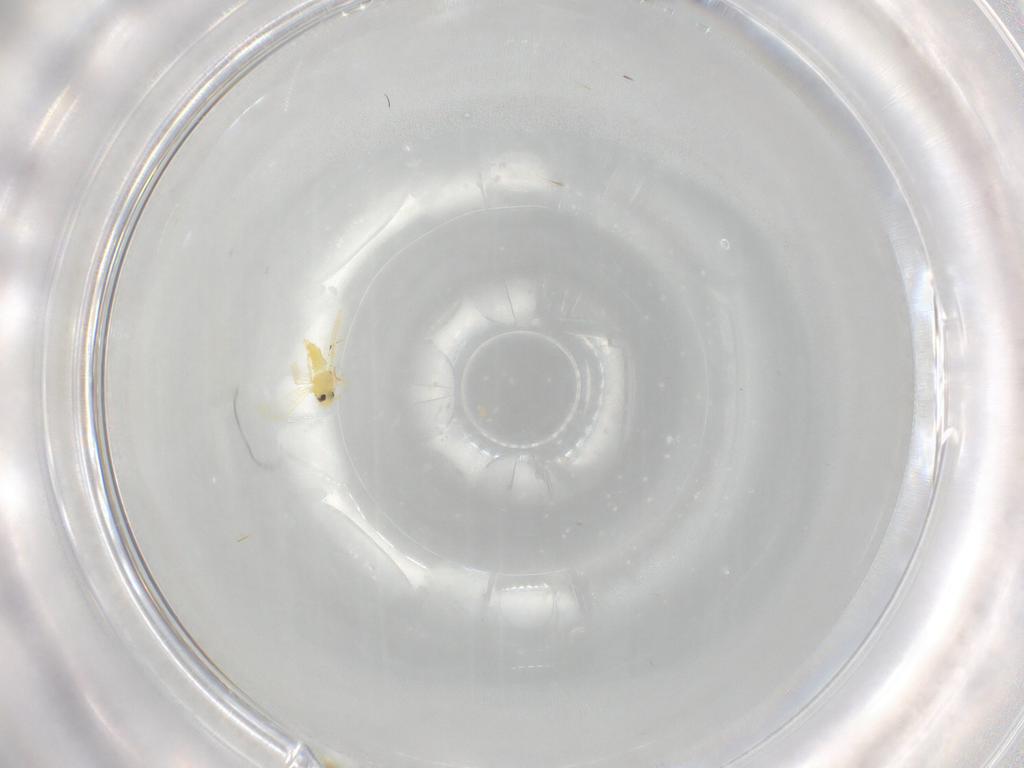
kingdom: Animalia
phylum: Arthropoda
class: Insecta
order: Hemiptera
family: Aleyrodidae
